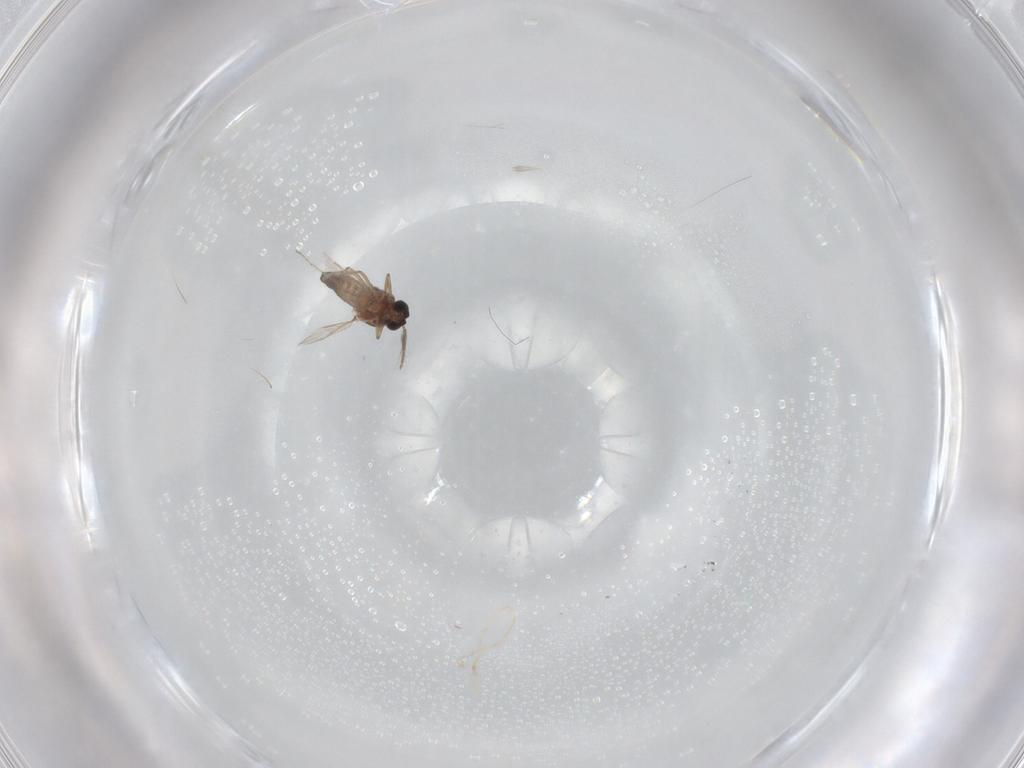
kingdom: Animalia
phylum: Arthropoda
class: Insecta
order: Diptera
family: Ceratopogonidae
